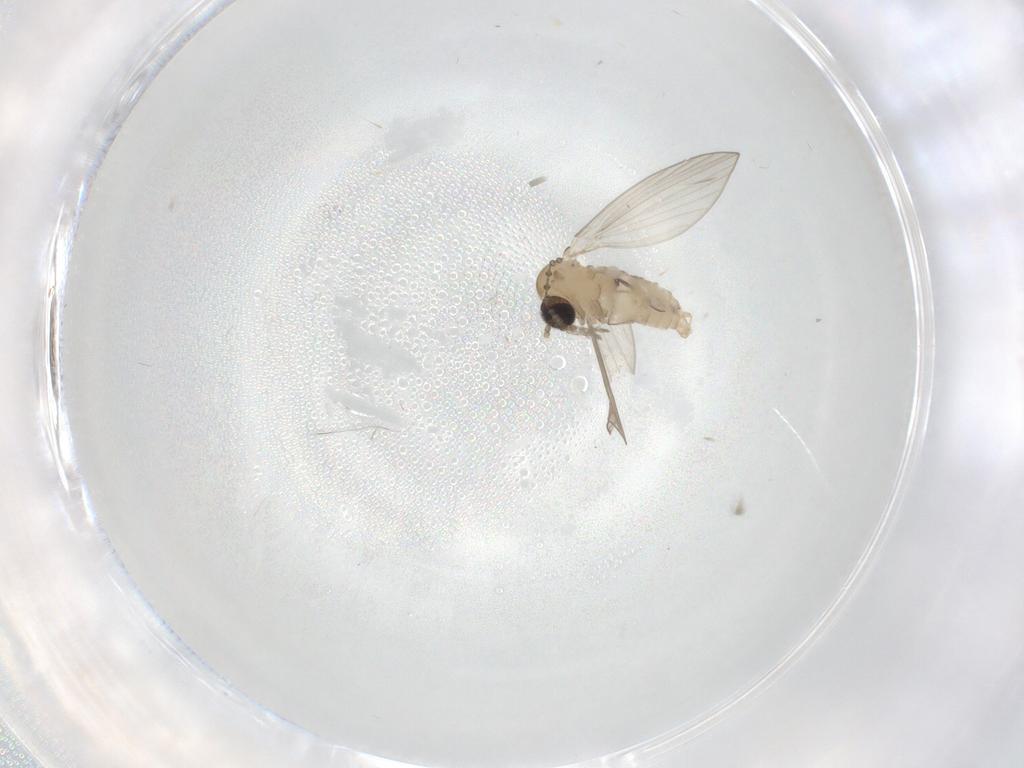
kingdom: Animalia
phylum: Arthropoda
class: Insecta
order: Diptera
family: Psychodidae
